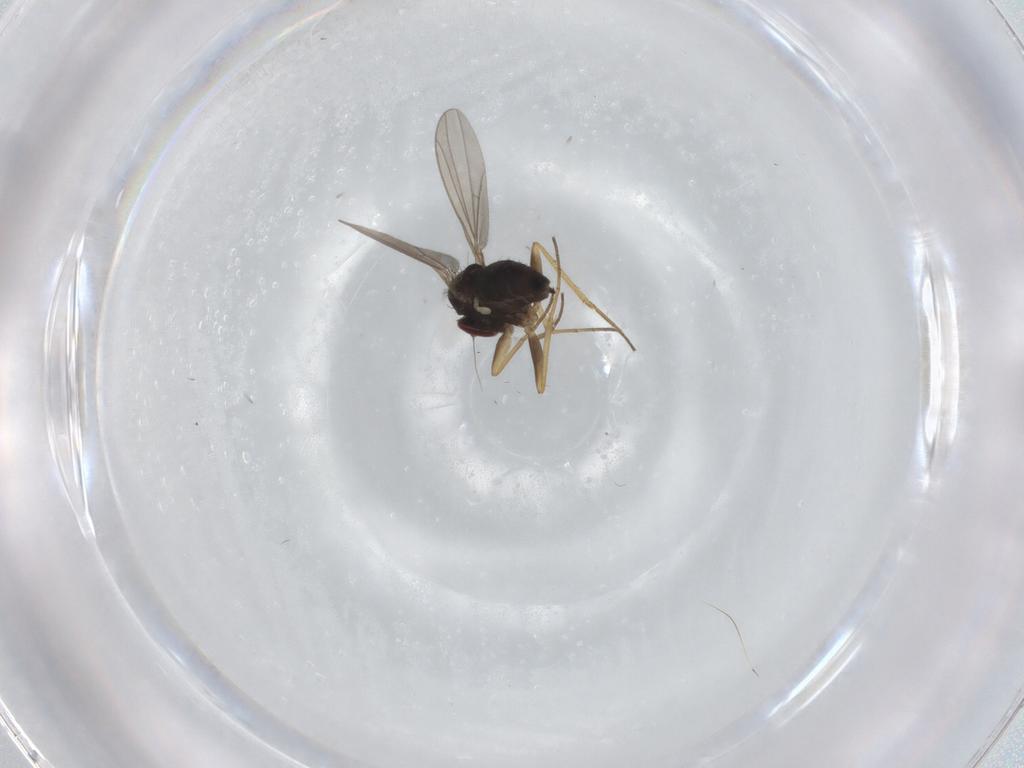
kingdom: Animalia
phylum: Arthropoda
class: Insecta
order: Diptera
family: Dolichopodidae
